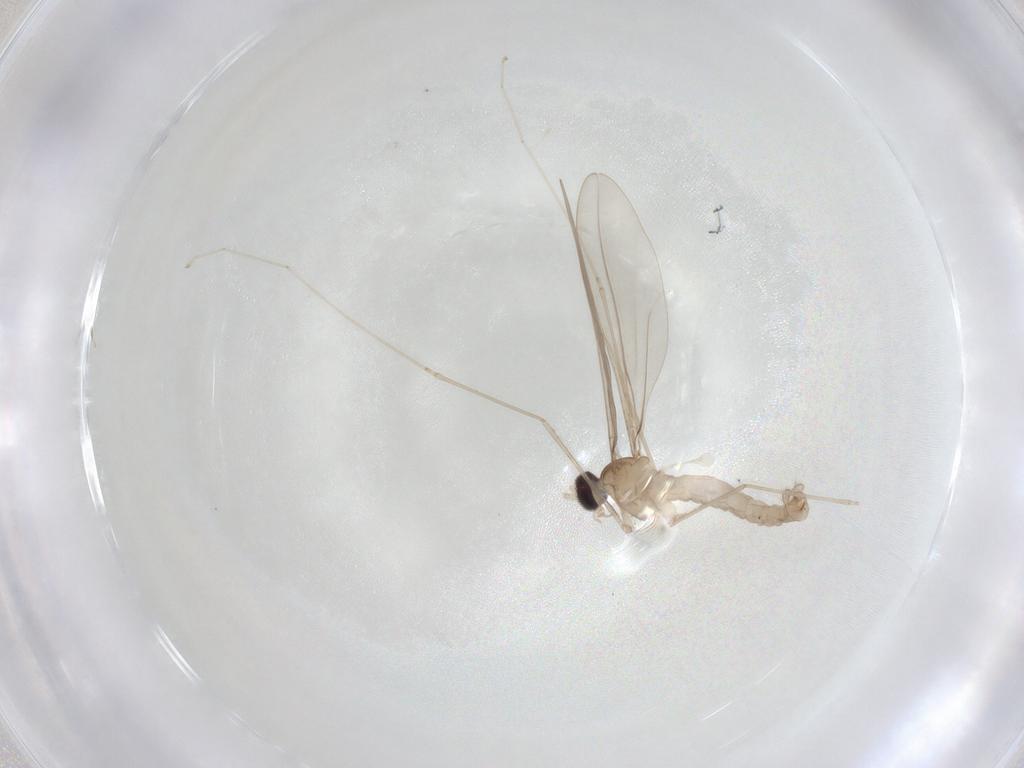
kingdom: Animalia
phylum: Arthropoda
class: Insecta
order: Diptera
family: Cecidomyiidae
